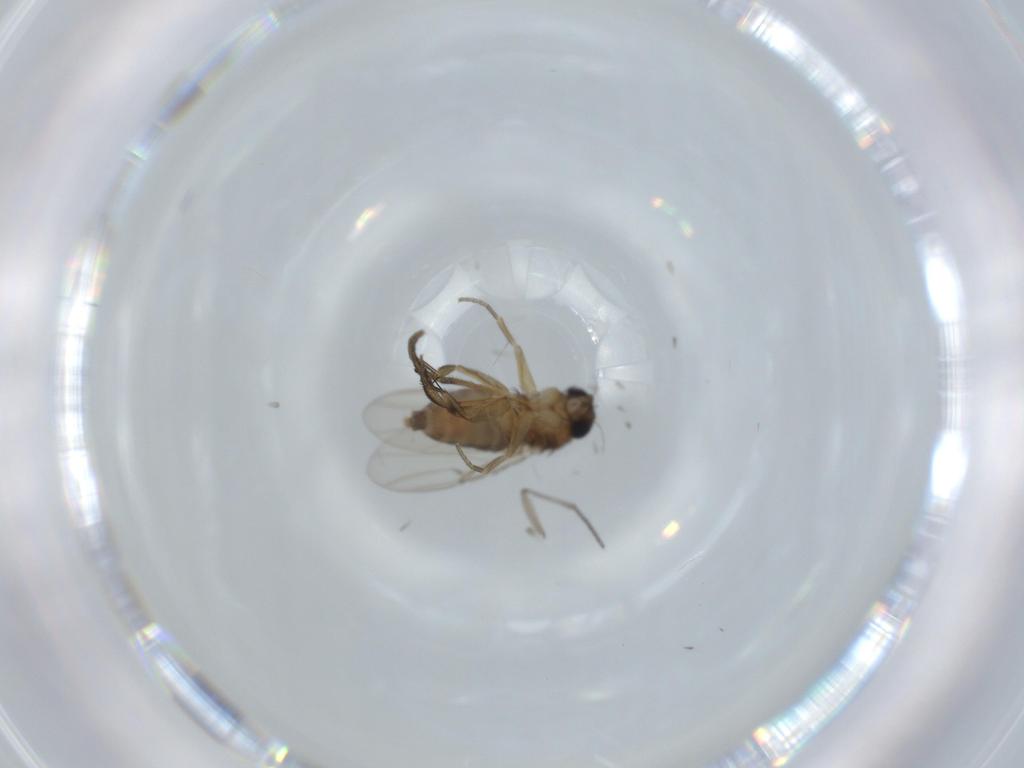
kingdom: Animalia
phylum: Arthropoda
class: Insecta
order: Diptera
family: Phoridae
